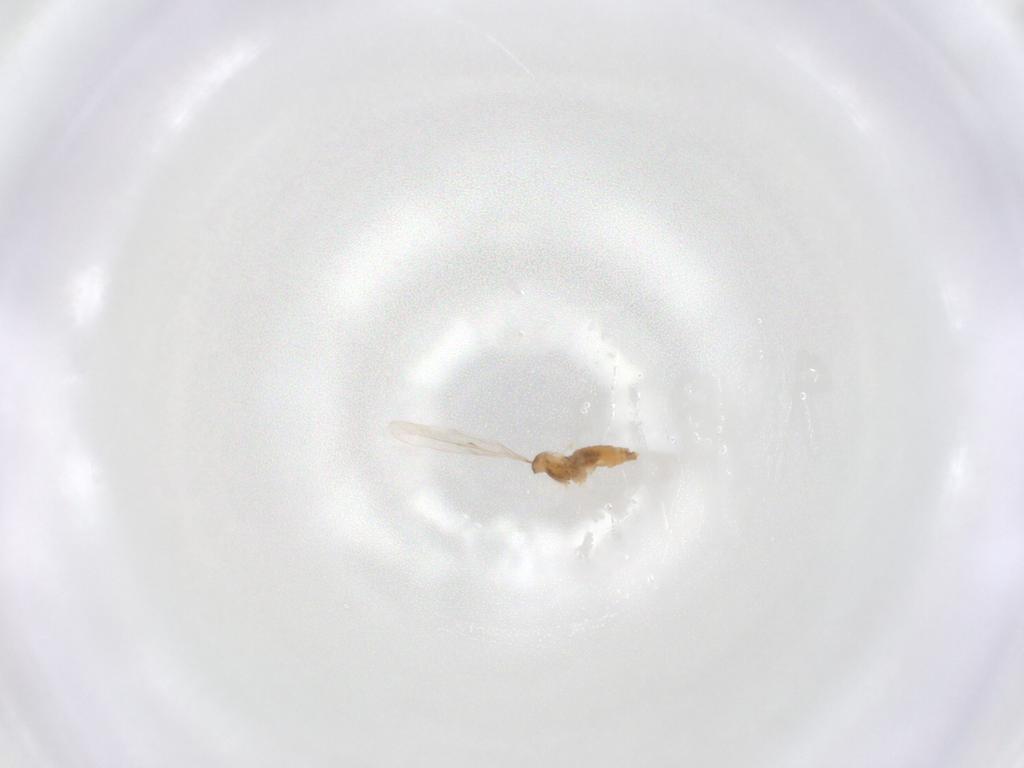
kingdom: Animalia
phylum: Arthropoda
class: Insecta
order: Diptera
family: Cecidomyiidae
